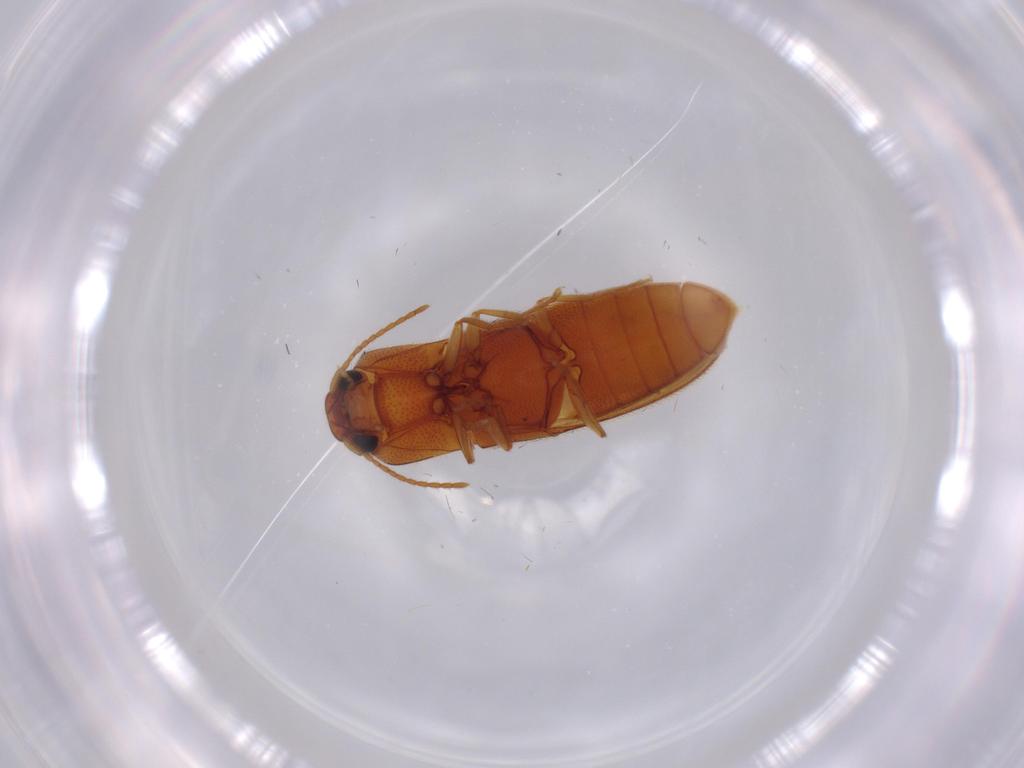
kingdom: Animalia
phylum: Arthropoda
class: Insecta
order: Coleoptera
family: Elateridae
